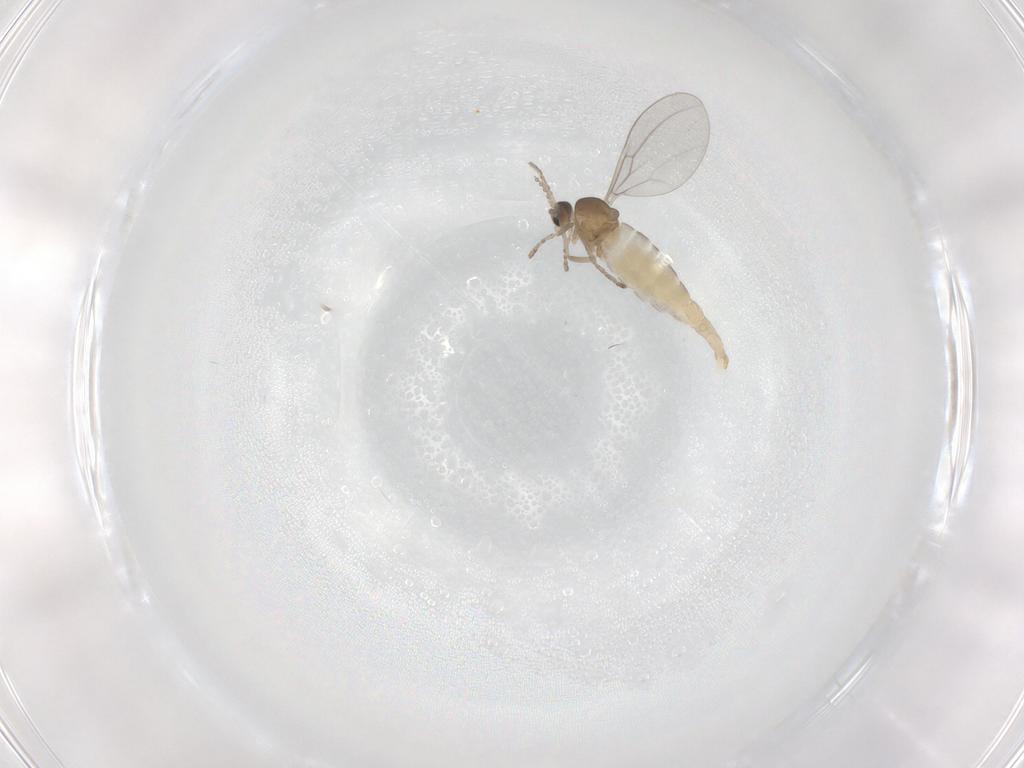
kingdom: Animalia
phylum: Arthropoda
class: Insecta
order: Diptera
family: Cecidomyiidae
